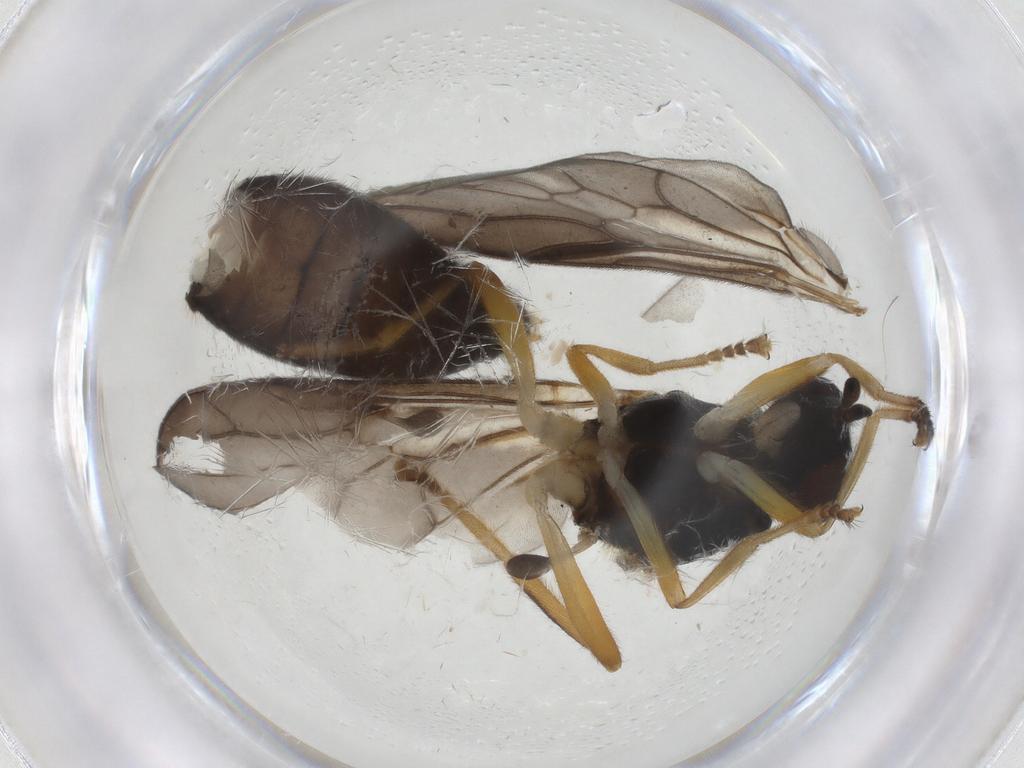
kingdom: Animalia
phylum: Arthropoda
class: Insecta
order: Diptera
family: Stratiomyidae
